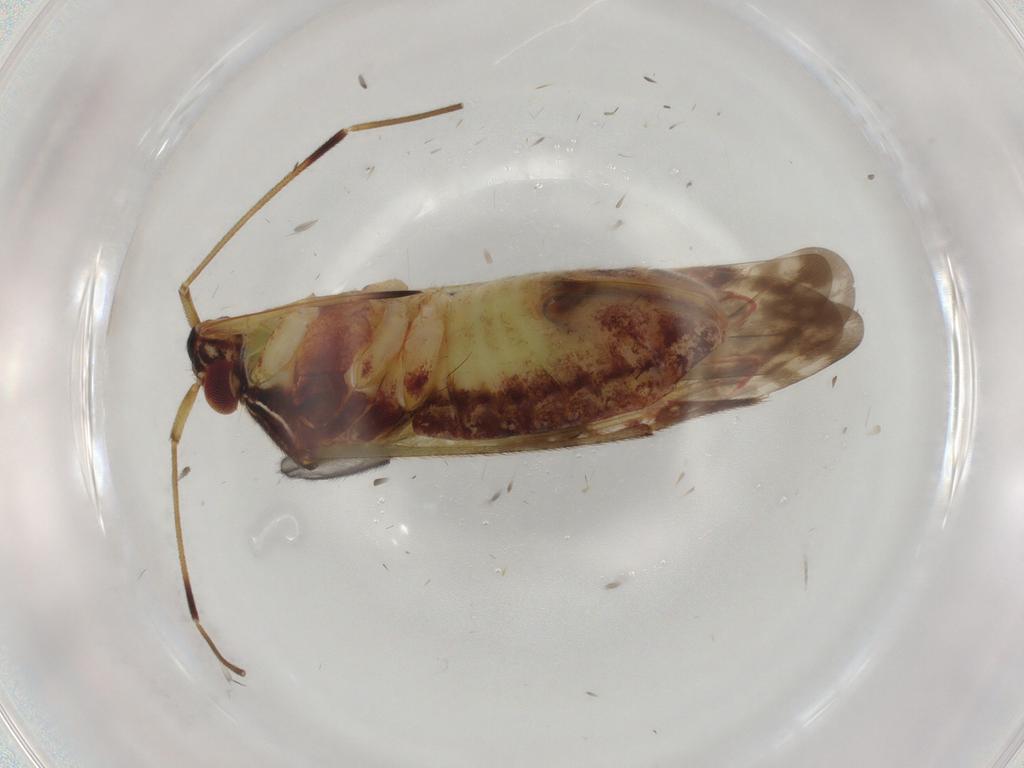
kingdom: Animalia
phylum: Arthropoda
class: Insecta
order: Hemiptera
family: Miridae
